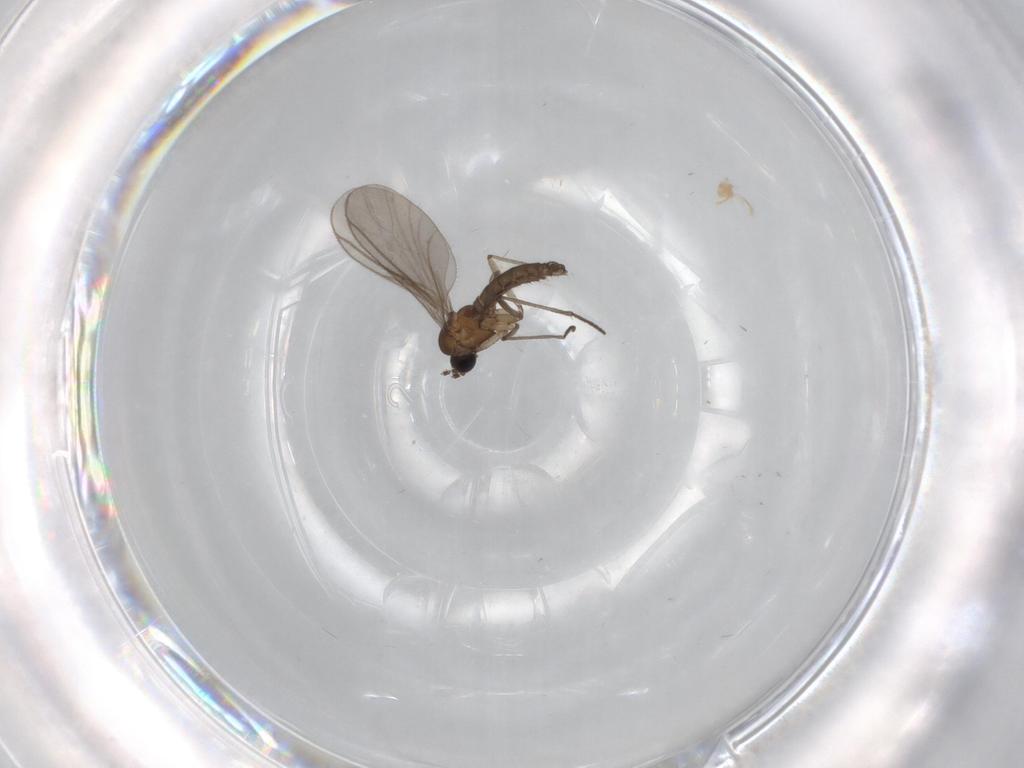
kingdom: Animalia
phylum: Arthropoda
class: Insecta
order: Diptera
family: Sciaridae
